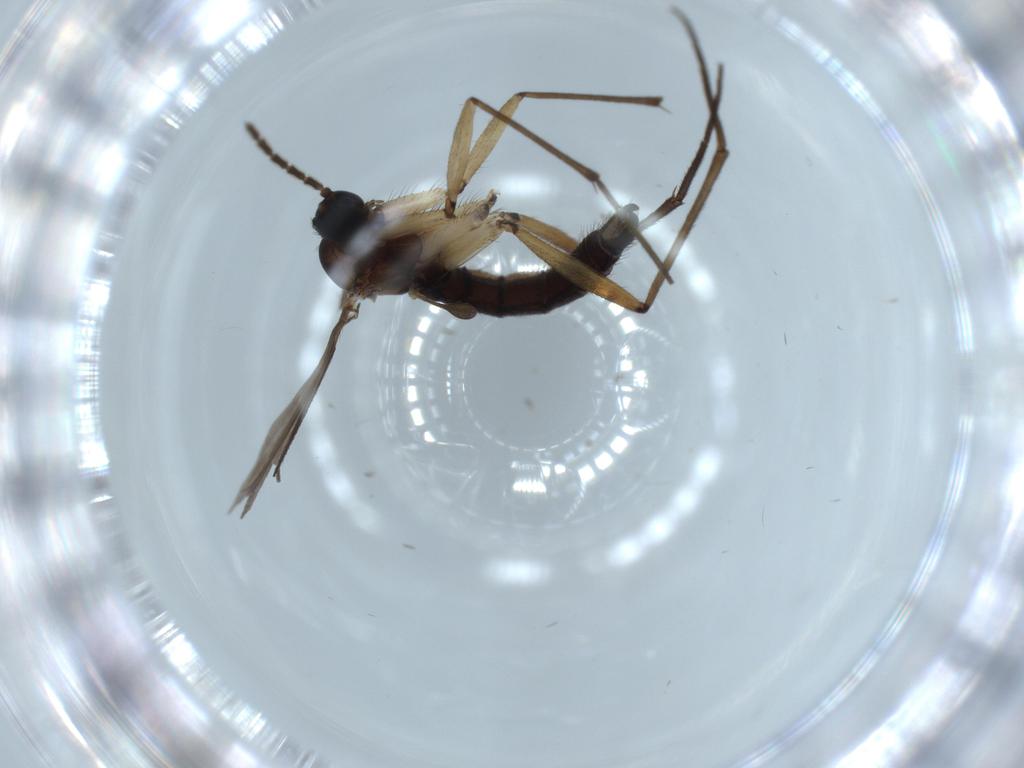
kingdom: Animalia
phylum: Arthropoda
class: Insecta
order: Diptera
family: Sciaridae
